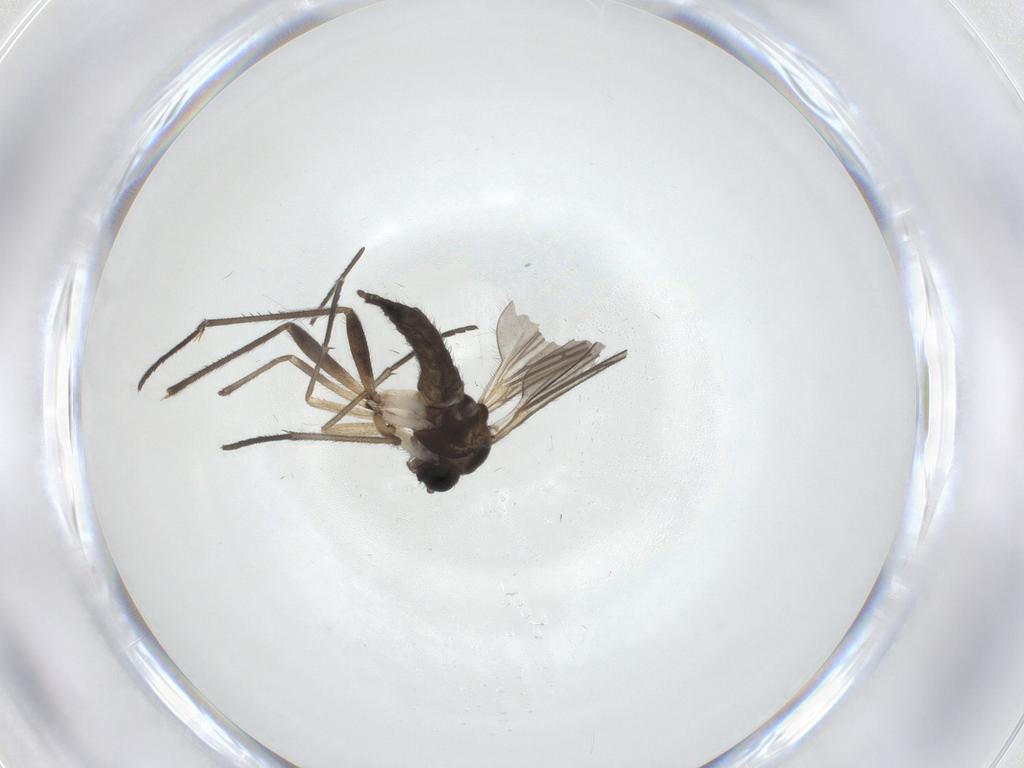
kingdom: Animalia
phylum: Arthropoda
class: Insecta
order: Diptera
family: Sciaridae
